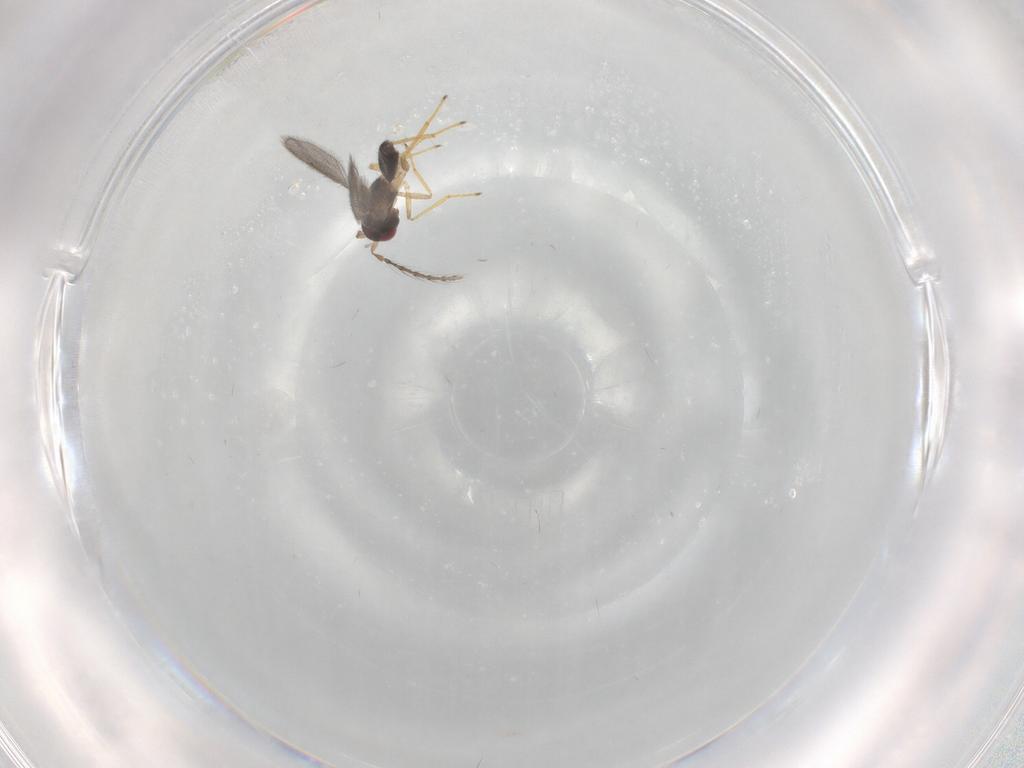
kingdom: Animalia
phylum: Arthropoda
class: Insecta
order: Hymenoptera
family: Eulophidae
